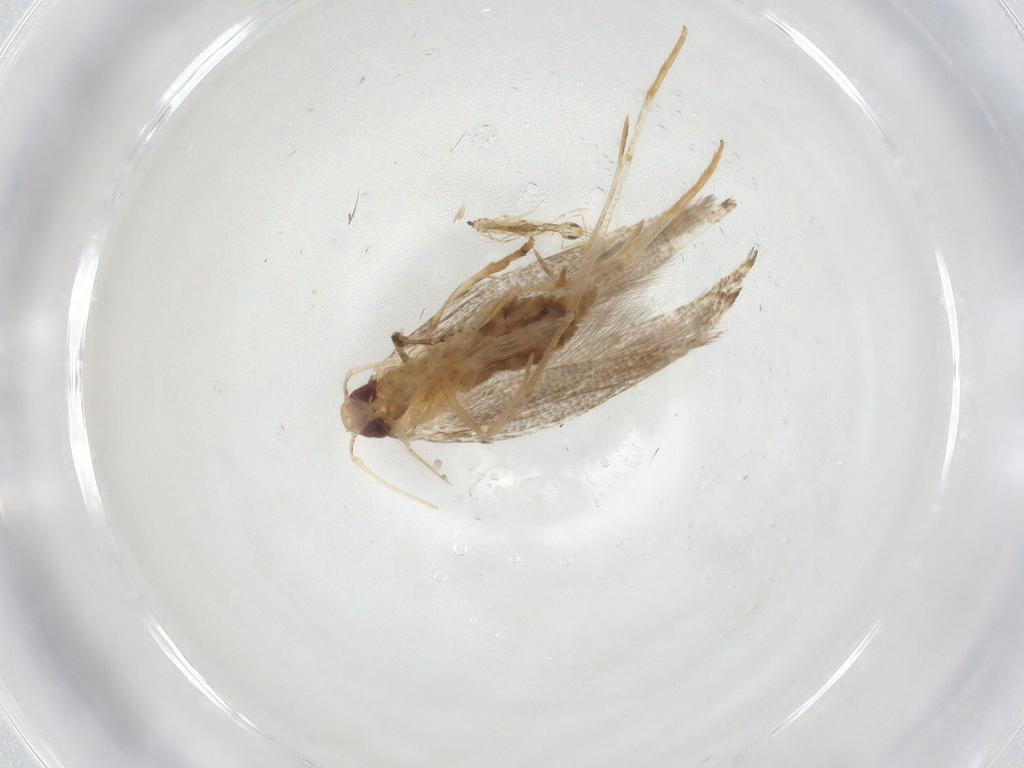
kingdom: Animalia
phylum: Arthropoda
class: Insecta
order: Lepidoptera
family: Cosmopterigidae
